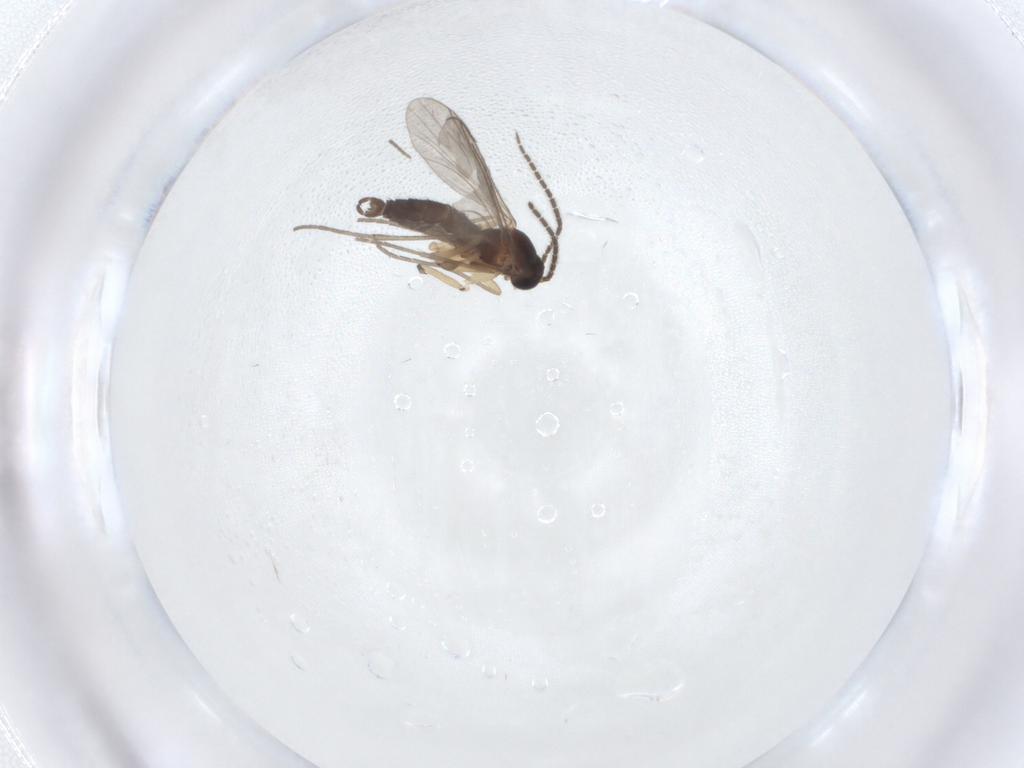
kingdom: Animalia
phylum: Arthropoda
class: Insecta
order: Diptera
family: Sciaridae
